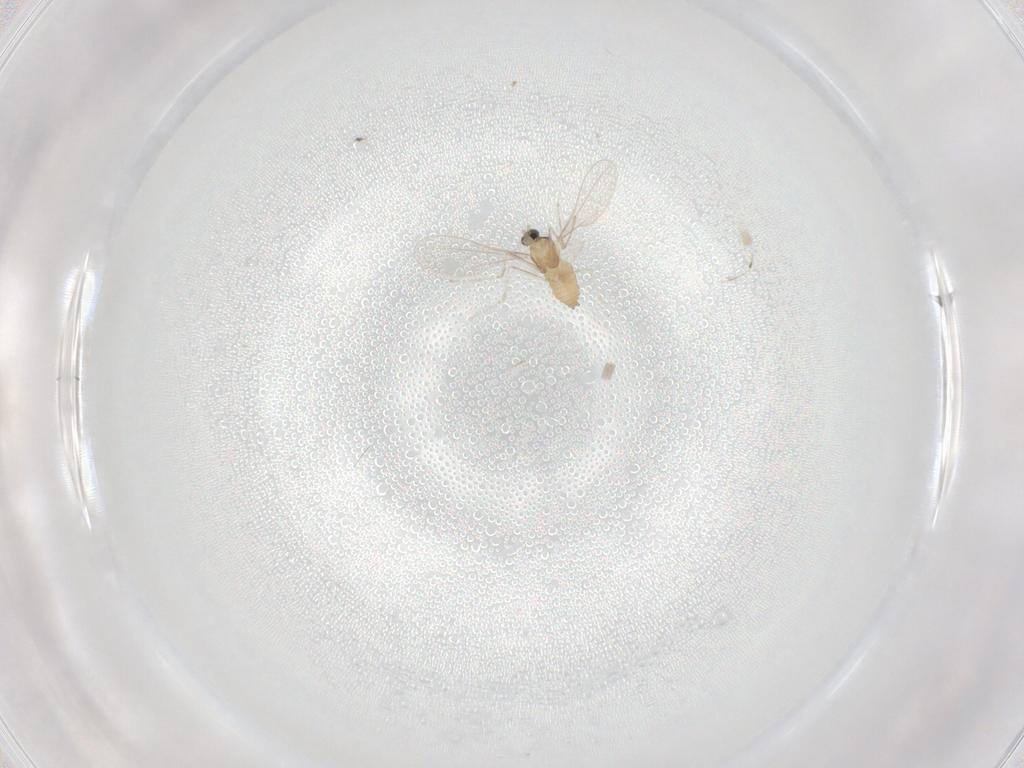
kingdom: Animalia
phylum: Arthropoda
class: Insecta
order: Diptera
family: Cecidomyiidae
